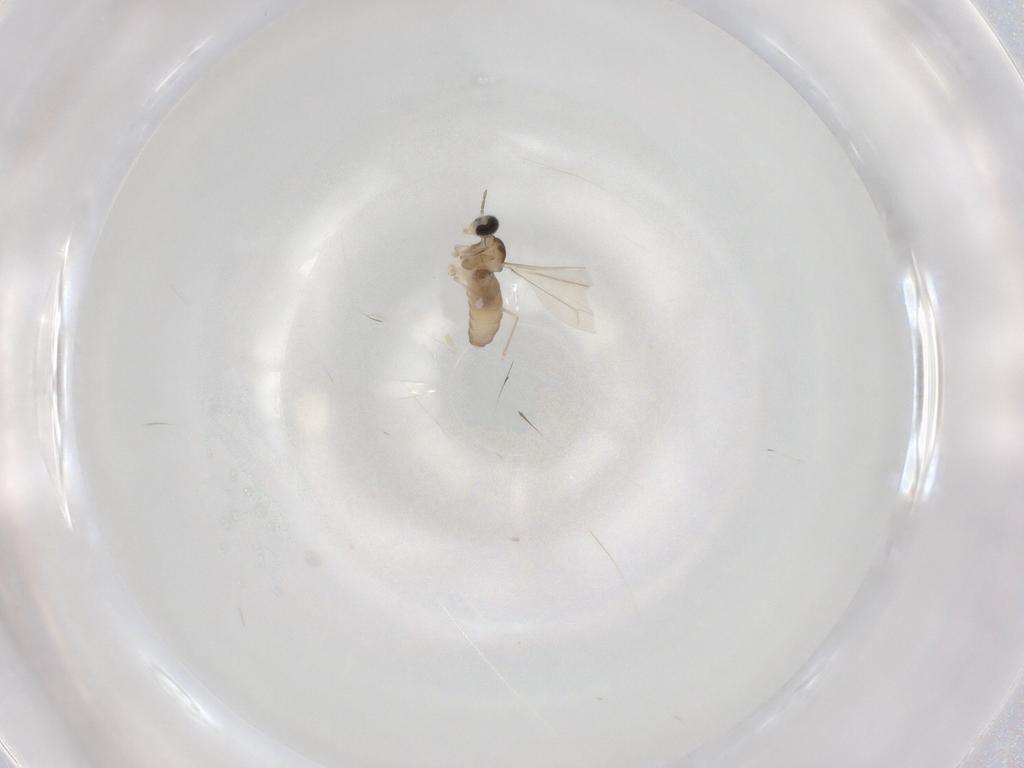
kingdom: Animalia
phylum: Arthropoda
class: Insecta
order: Diptera
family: Cecidomyiidae
